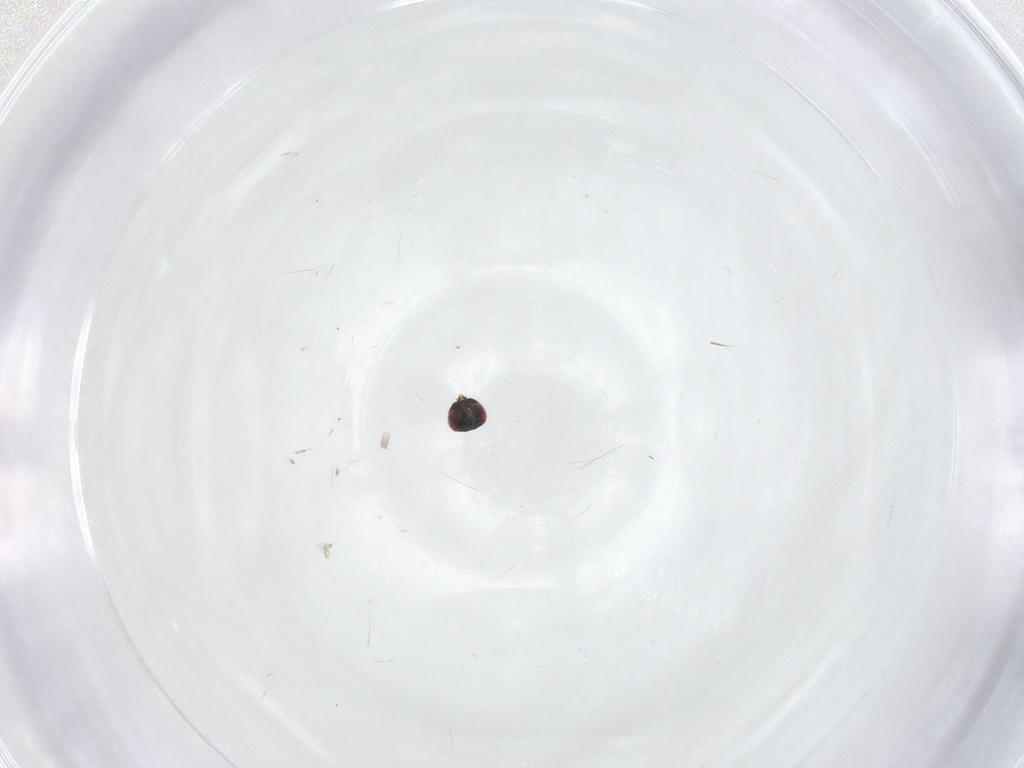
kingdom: Animalia
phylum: Arthropoda
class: Insecta
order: Hymenoptera
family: Eulophidae
